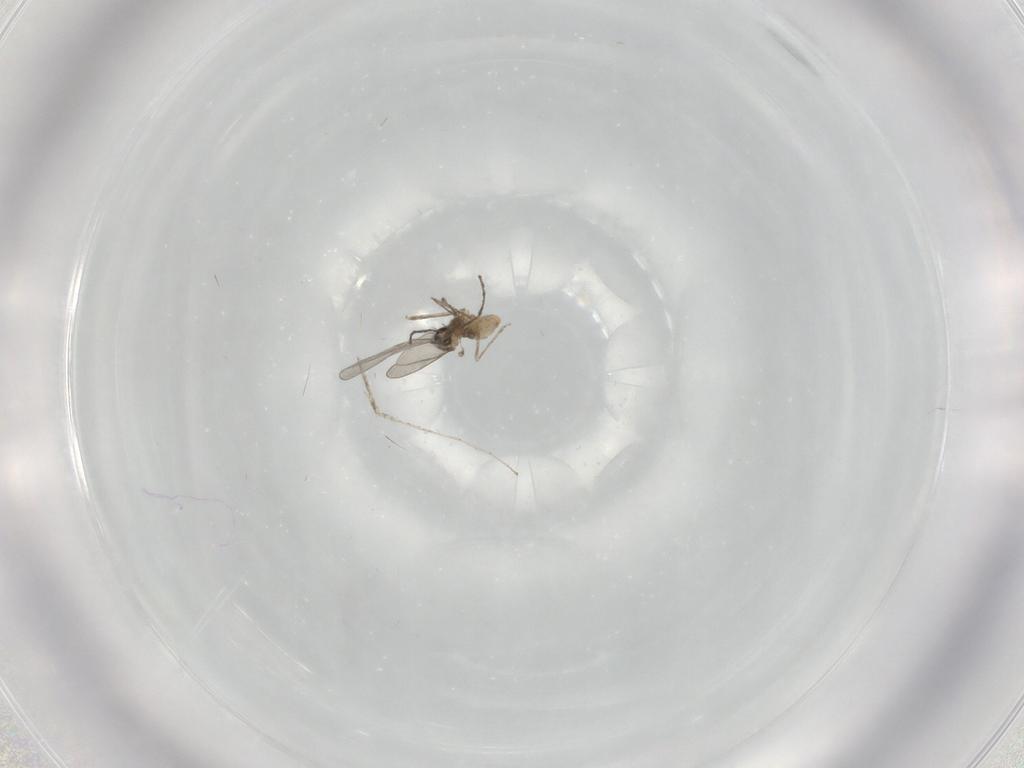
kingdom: Animalia
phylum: Arthropoda
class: Insecta
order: Diptera
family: Cecidomyiidae
